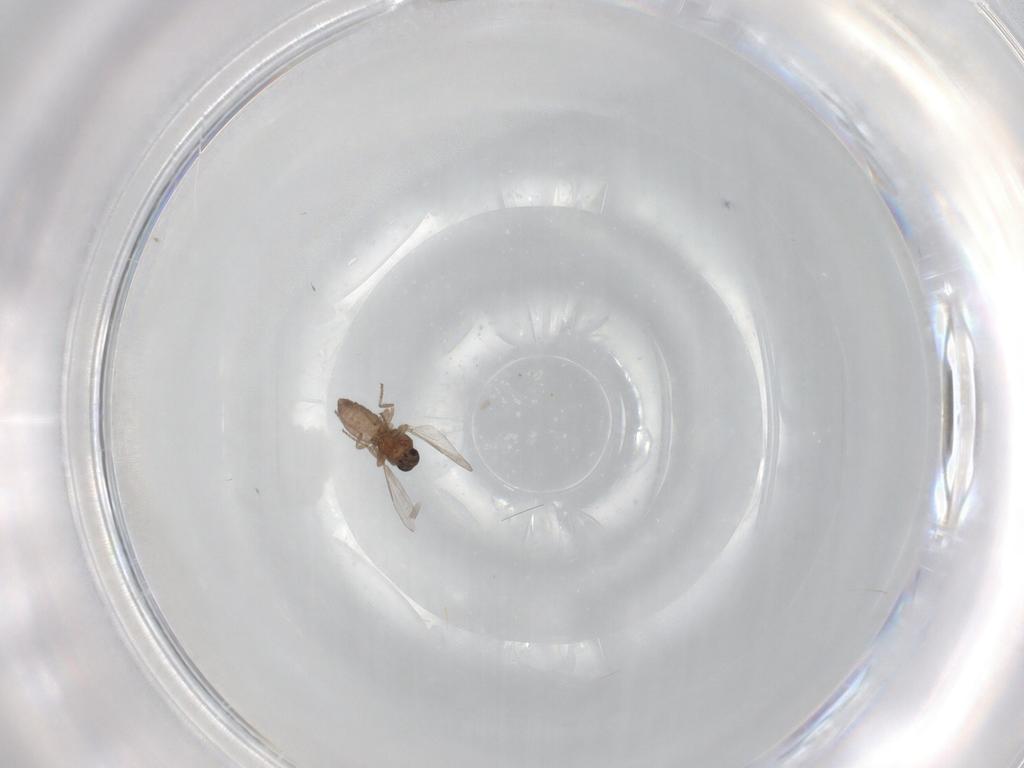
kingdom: Animalia
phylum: Arthropoda
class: Insecta
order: Diptera
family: Ceratopogonidae
